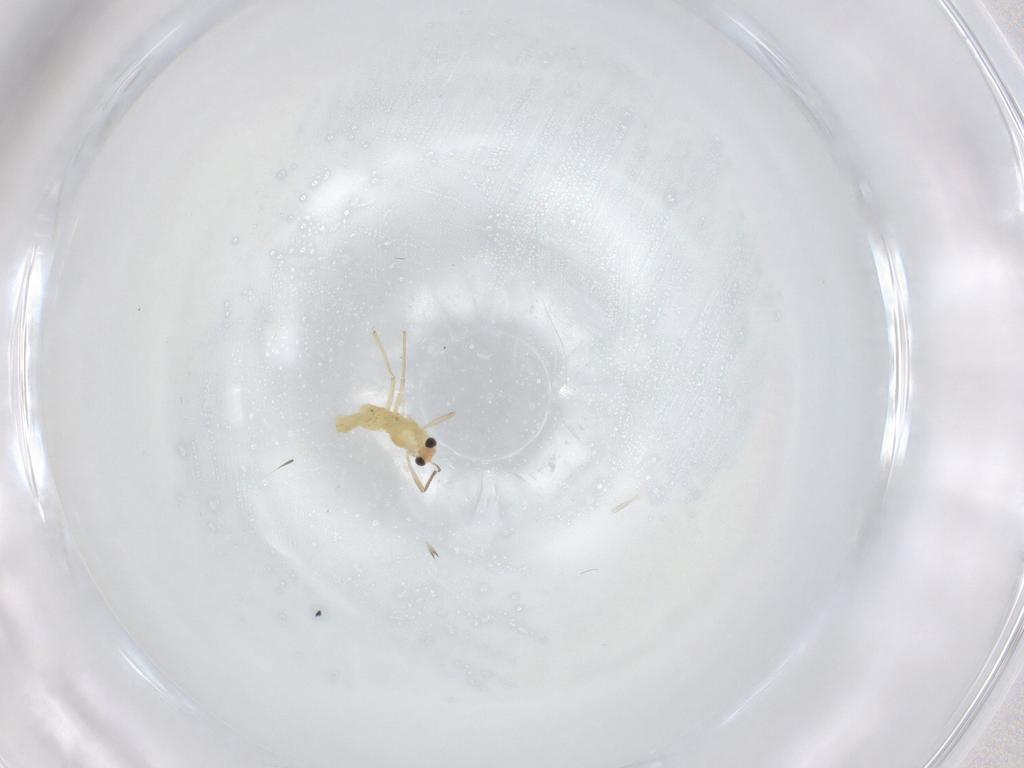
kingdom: Animalia
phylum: Arthropoda
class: Insecta
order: Diptera
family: Chironomidae
